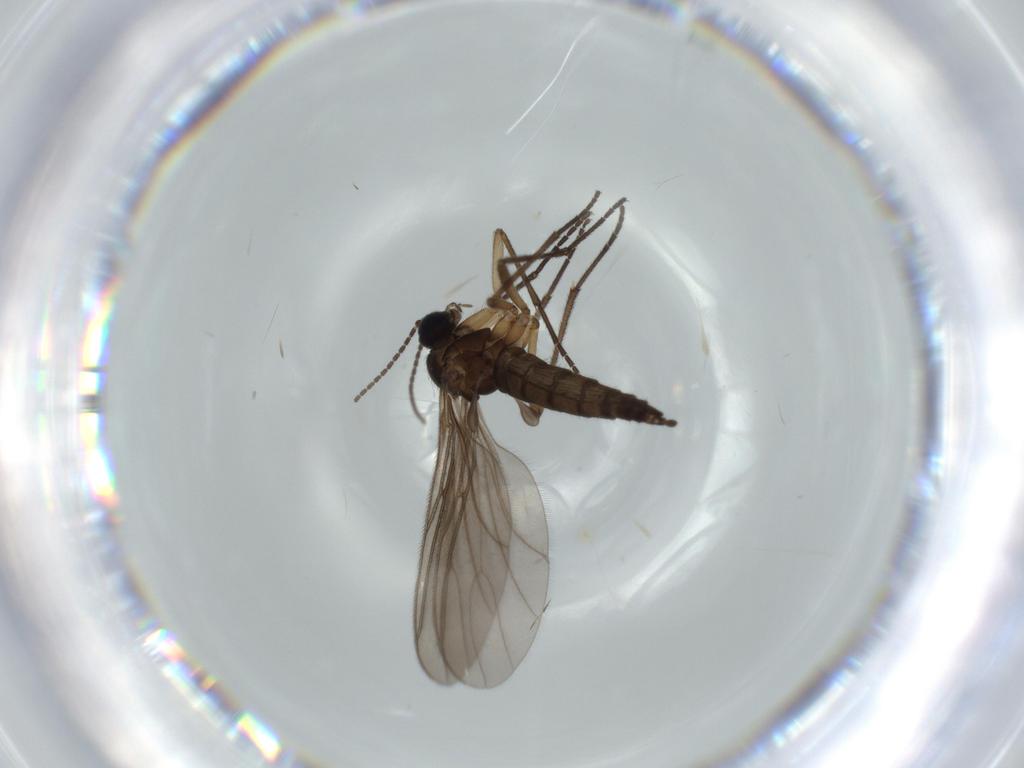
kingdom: Animalia
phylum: Arthropoda
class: Insecta
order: Diptera
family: Sciaridae
